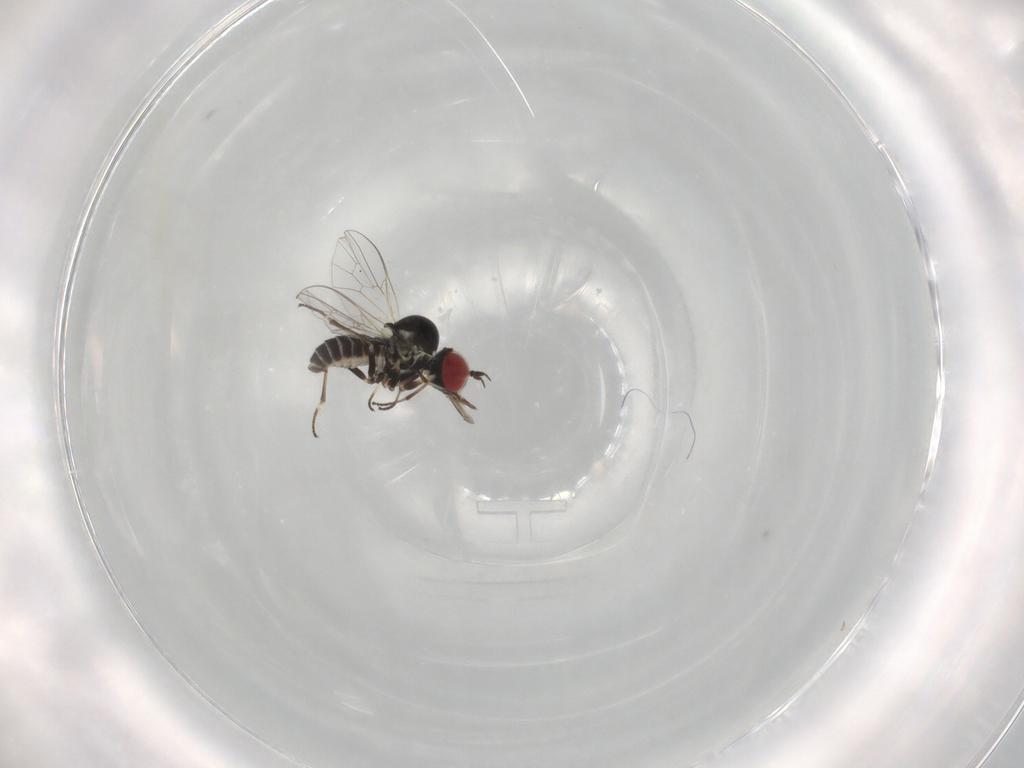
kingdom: Animalia
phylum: Arthropoda
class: Insecta
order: Diptera
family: Mythicomyiidae
